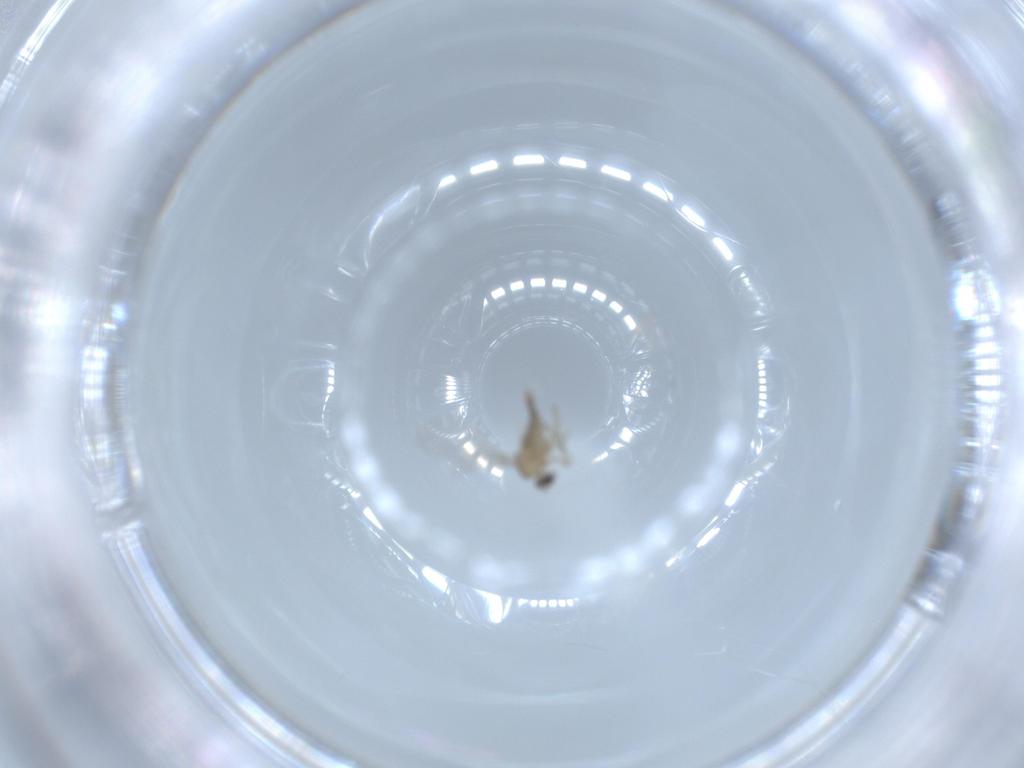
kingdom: Animalia
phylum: Arthropoda
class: Insecta
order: Diptera
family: Cecidomyiidae
